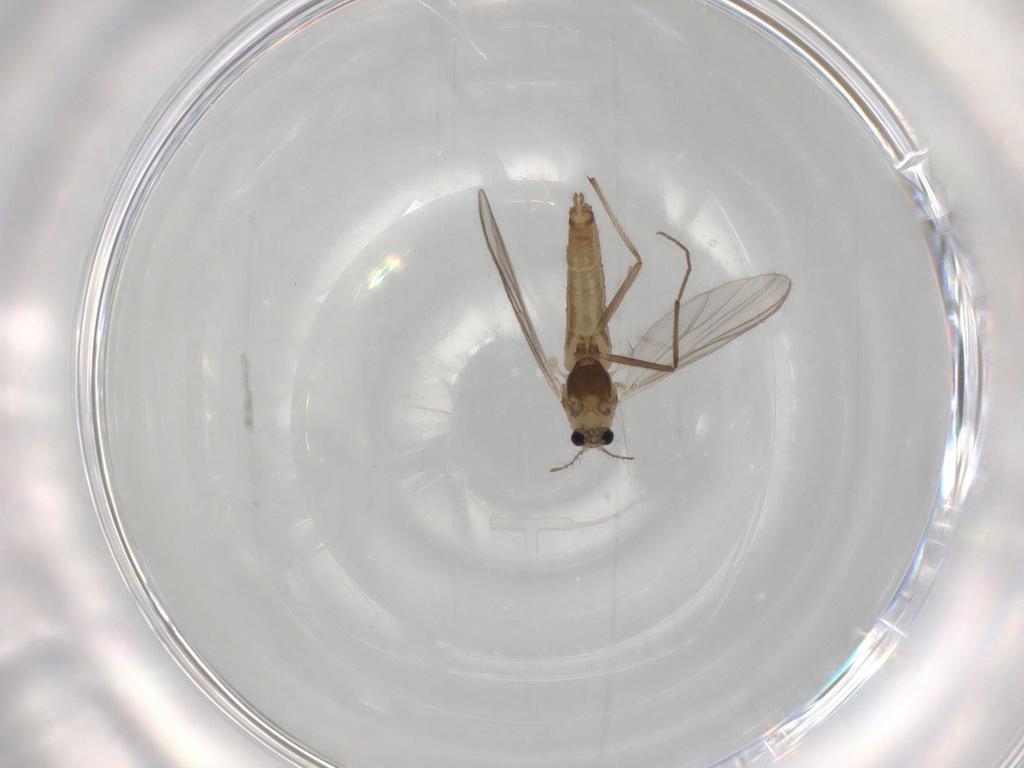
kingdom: Animalia
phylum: Arthropoda
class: Insecta
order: Diptera
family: Chironomidae
